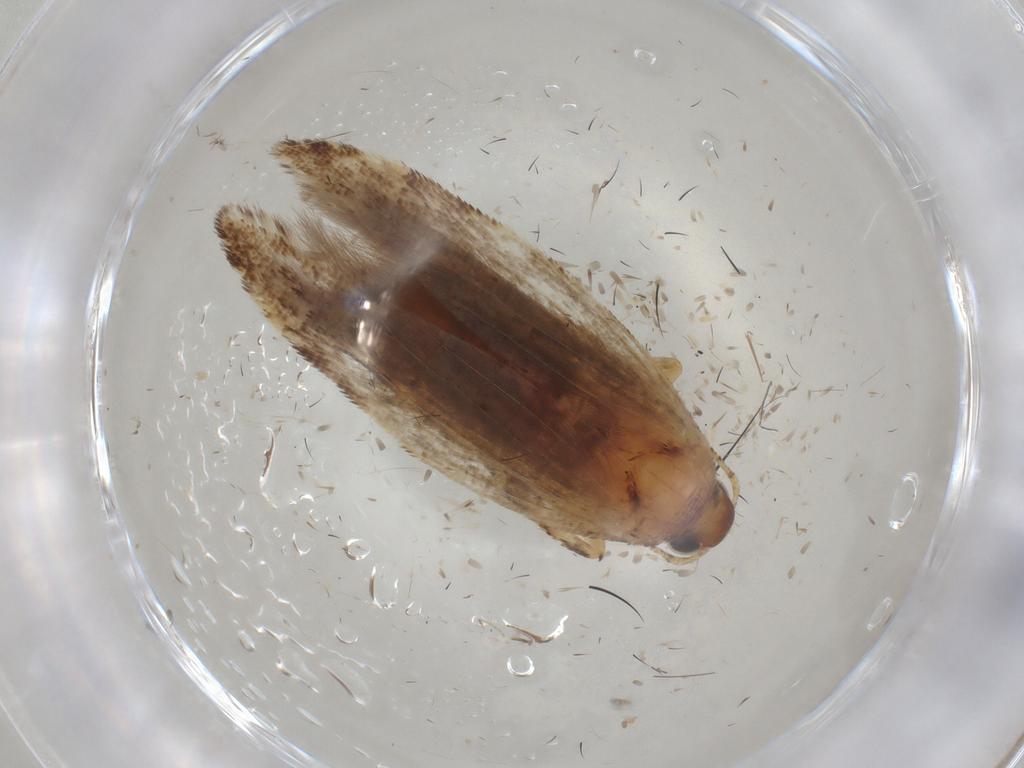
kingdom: Animalia
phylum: Arthropoda
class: Insecta
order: Lepidoptera
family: Gelechiidae
